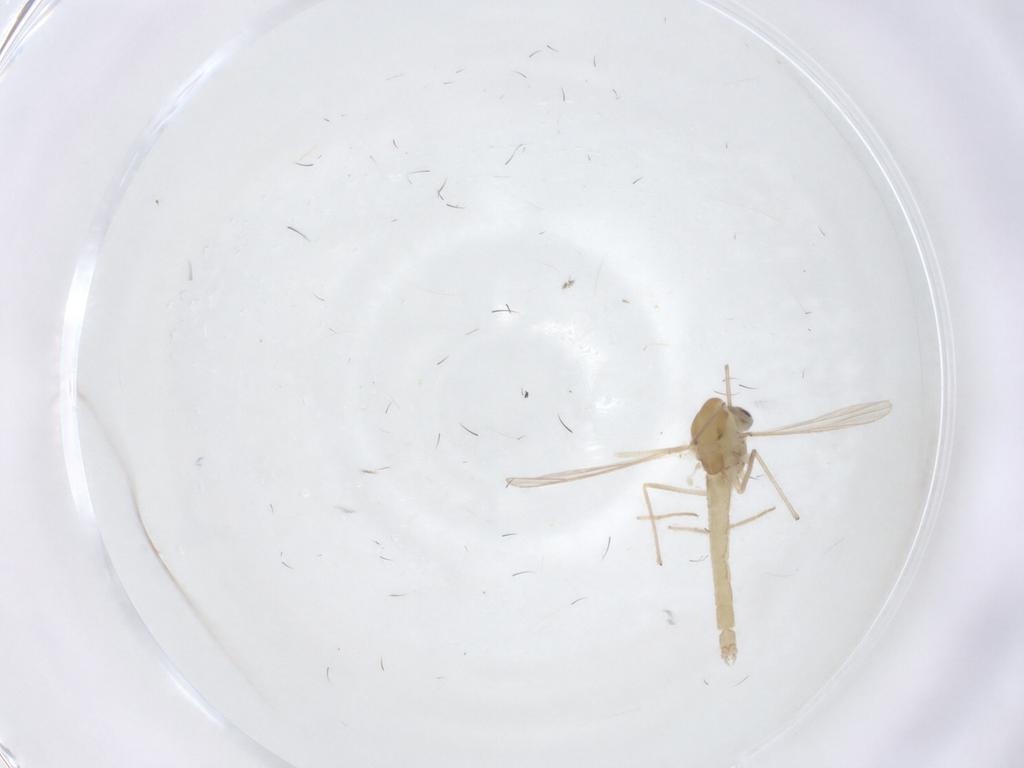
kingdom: Animalia
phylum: Arthropoda
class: Insecta
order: Diptera
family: Chironomidae
